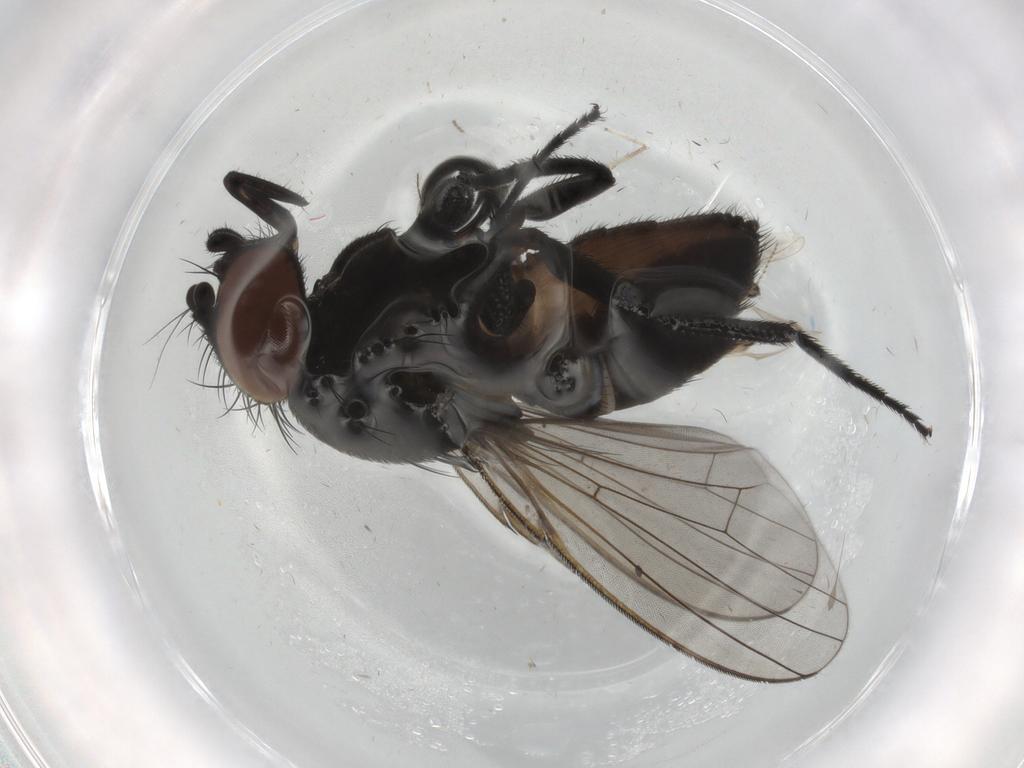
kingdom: Animalia
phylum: Arthropoda
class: Insecta
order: Diptera
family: Milichiidae
